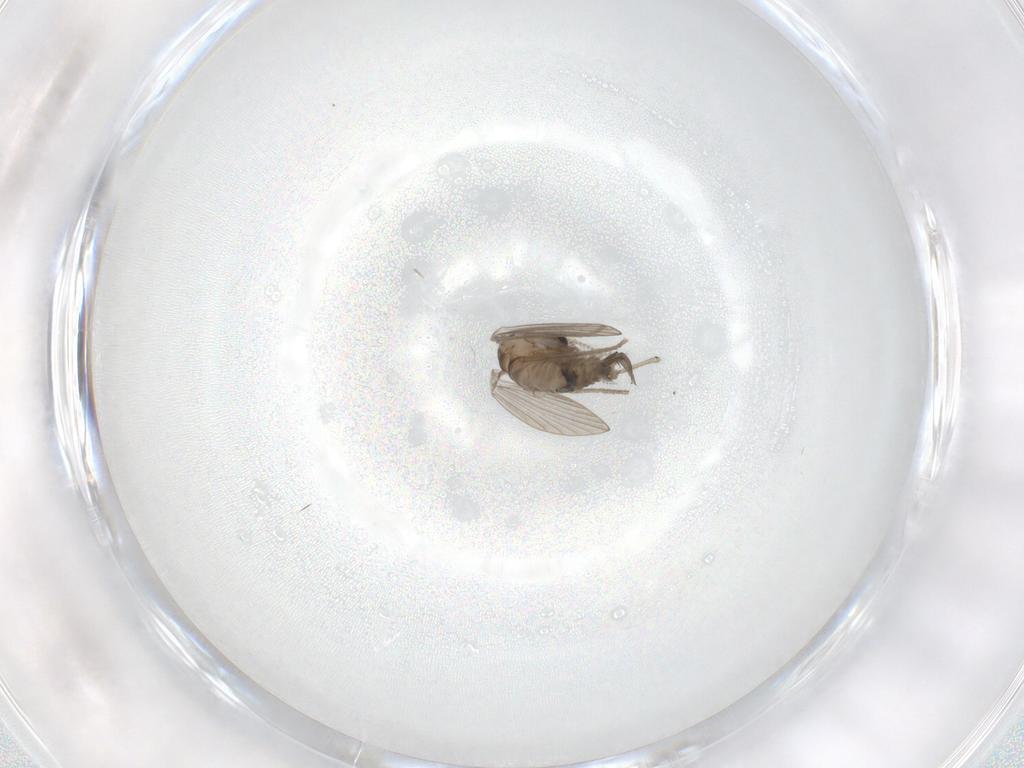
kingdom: Animalia
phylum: Arthropoda
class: Insecta
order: Diptera
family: Psychodidae
